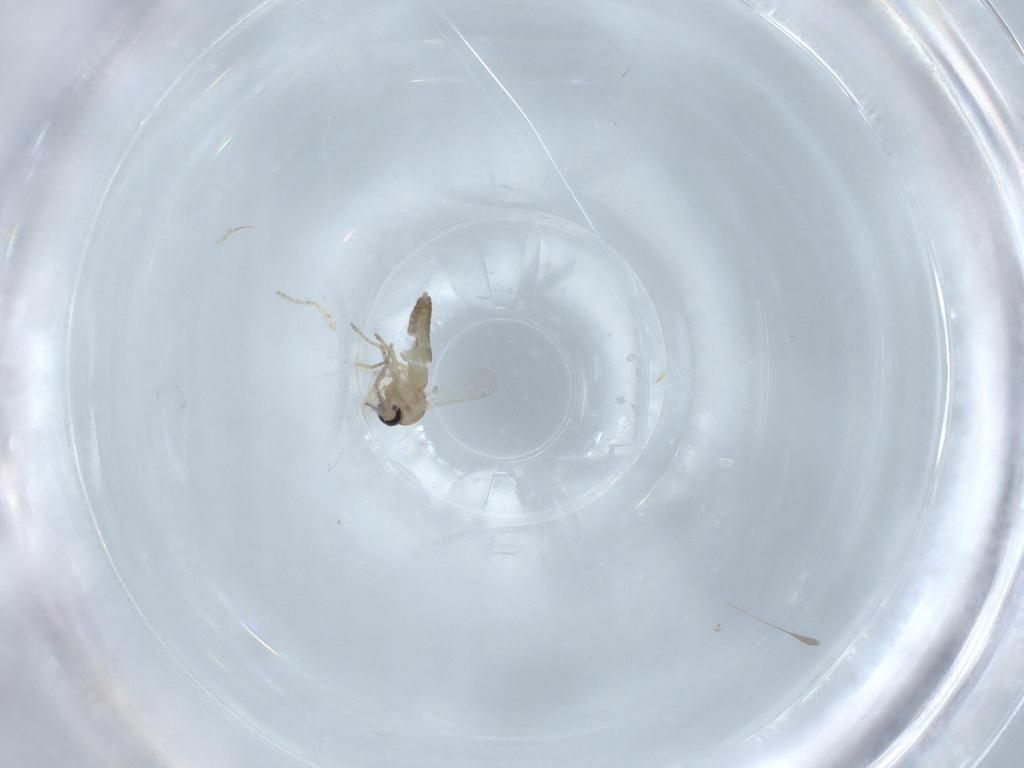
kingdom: Animalia
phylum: Arthropoda
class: Insecta
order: Diptera
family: Ceratopogonidae
